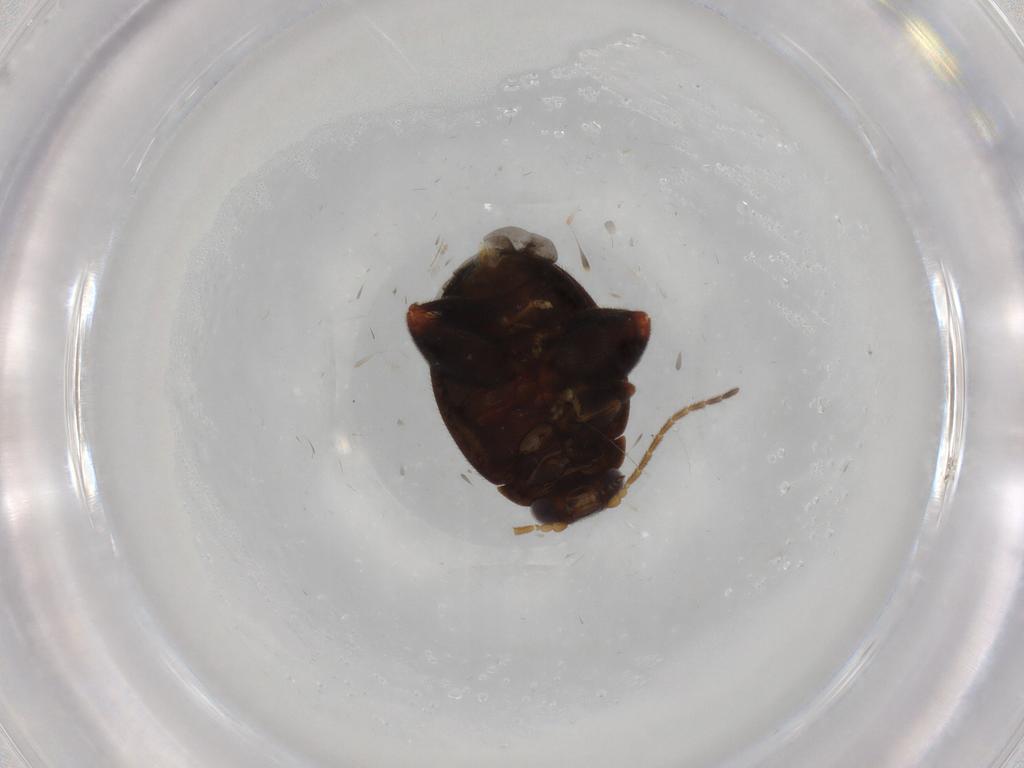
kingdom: Animalia
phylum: Arthropoda
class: Insecta
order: Coleoptera
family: Scirtidae
